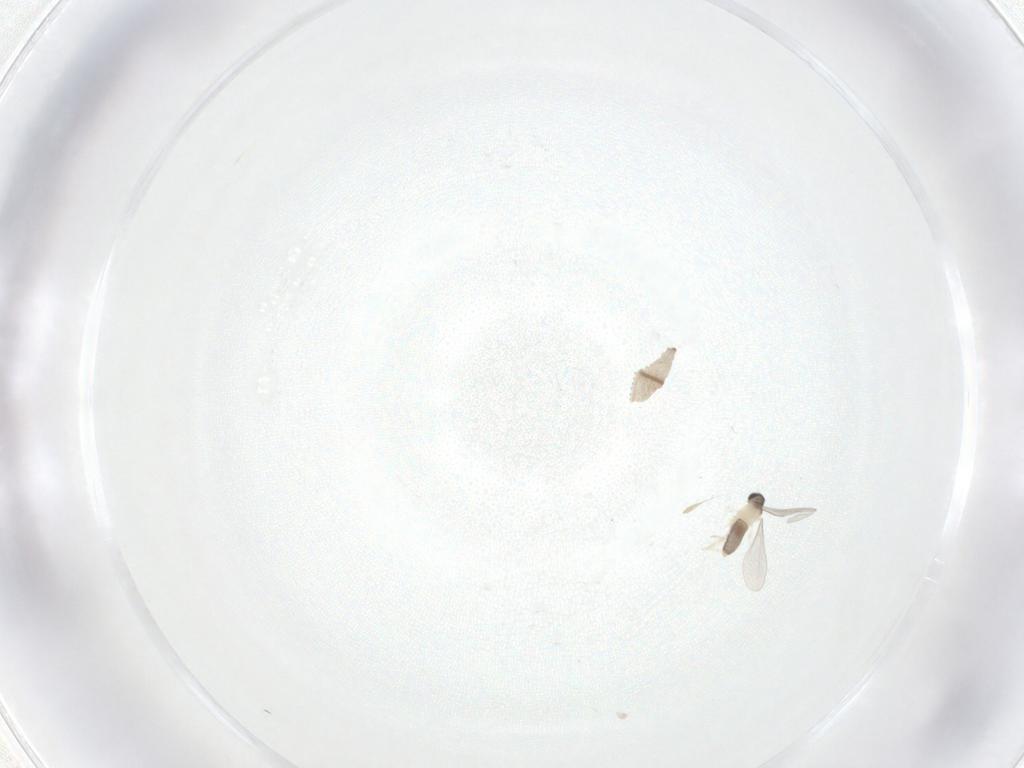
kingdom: Animalia
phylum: Arthropoda
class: Insecta
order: Diptera
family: Cecidomyiidae
